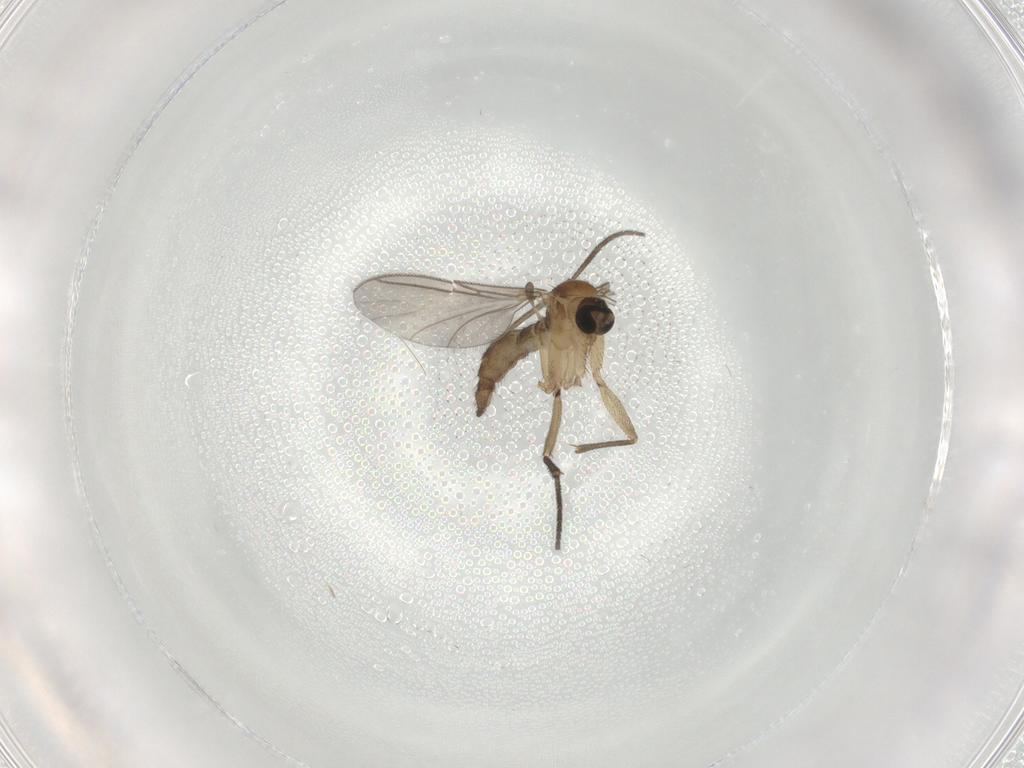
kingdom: Animalia
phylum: Arthropoda
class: Insecta
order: Diptera
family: Sciaridae
